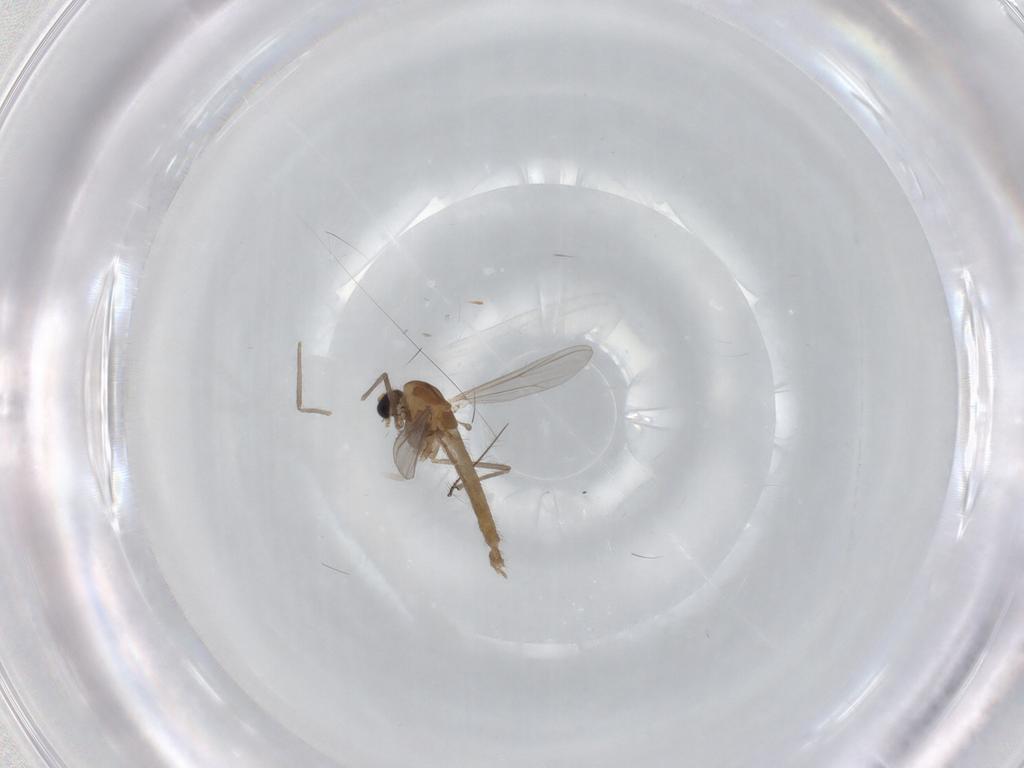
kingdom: Animalia
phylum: Arthropoda
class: Insecta
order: Diptera
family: Chironomidae
